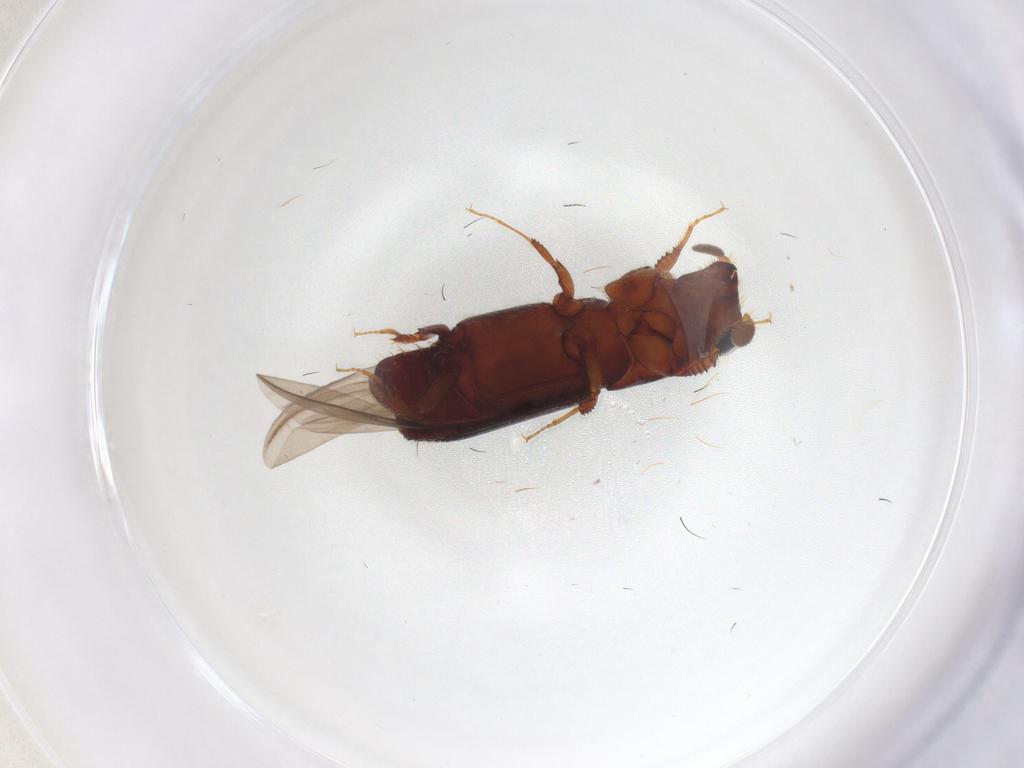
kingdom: Animalia
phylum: Arthropoda
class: Insecta
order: Coleoptera
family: Curculionidae
